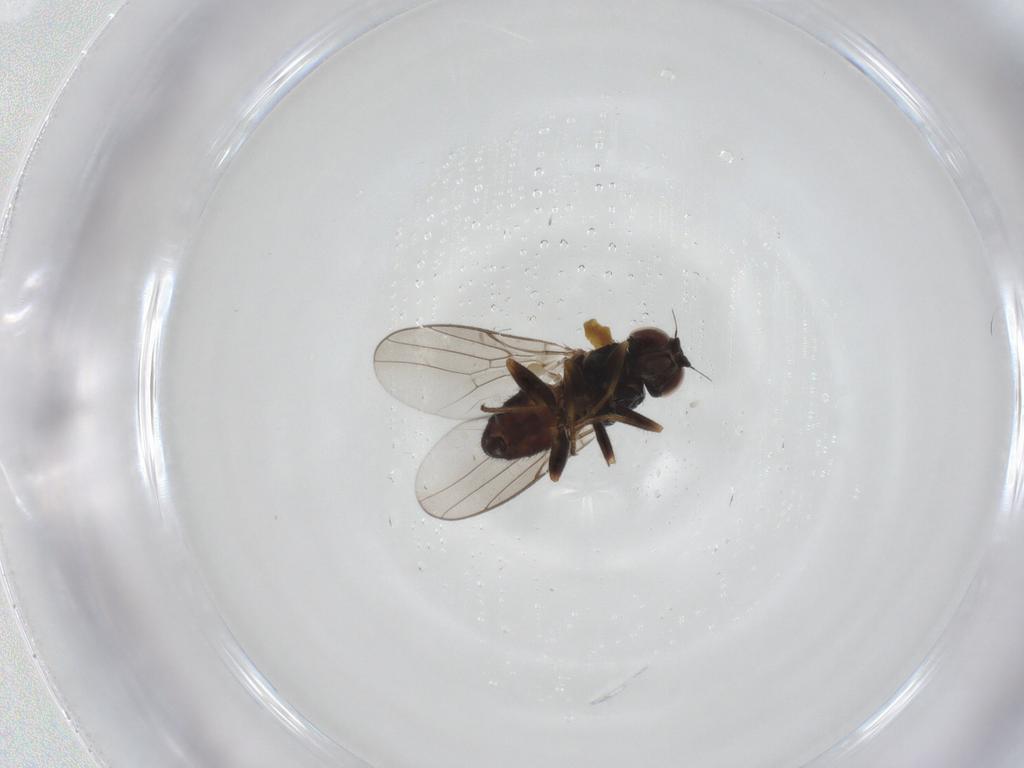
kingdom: Animalia
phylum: Arthropoda
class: Insecta
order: Diptera
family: Chloropidae
